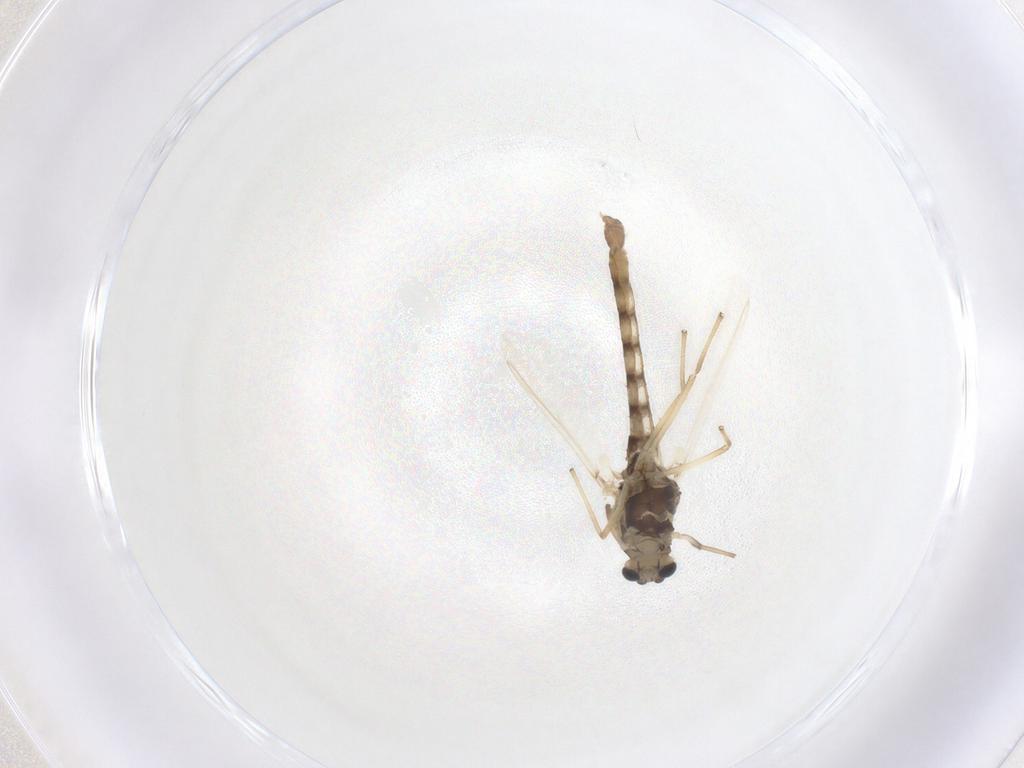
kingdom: Animalia
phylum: Arthropoda
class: Insecta
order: Diptera
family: Chironomidae
